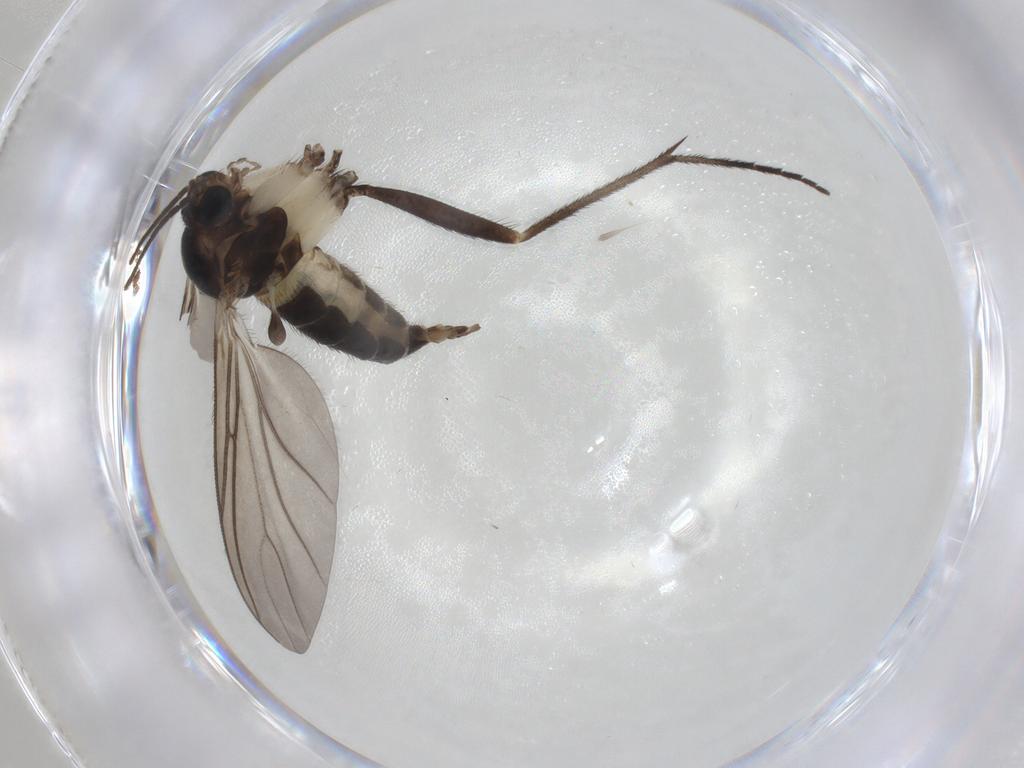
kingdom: Animalia
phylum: Arthropoda
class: Insecta
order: Diptera
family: Sciaridae
